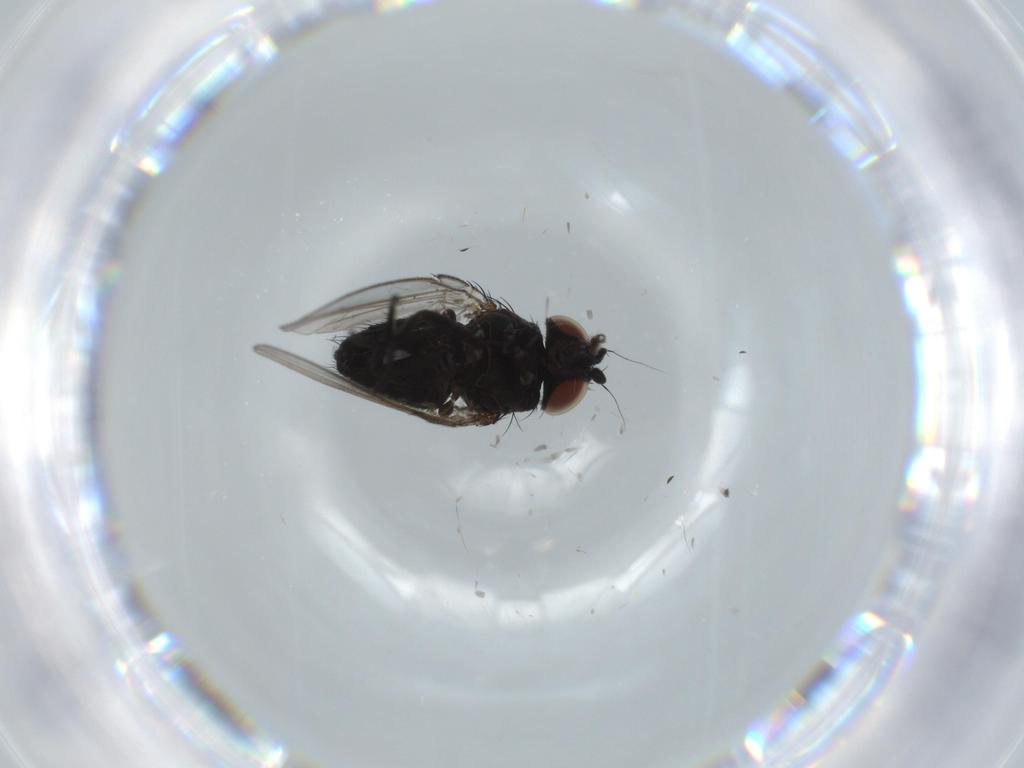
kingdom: Animalia
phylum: Arthropoda
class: Insecta
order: Diptera
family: Milichiidae
